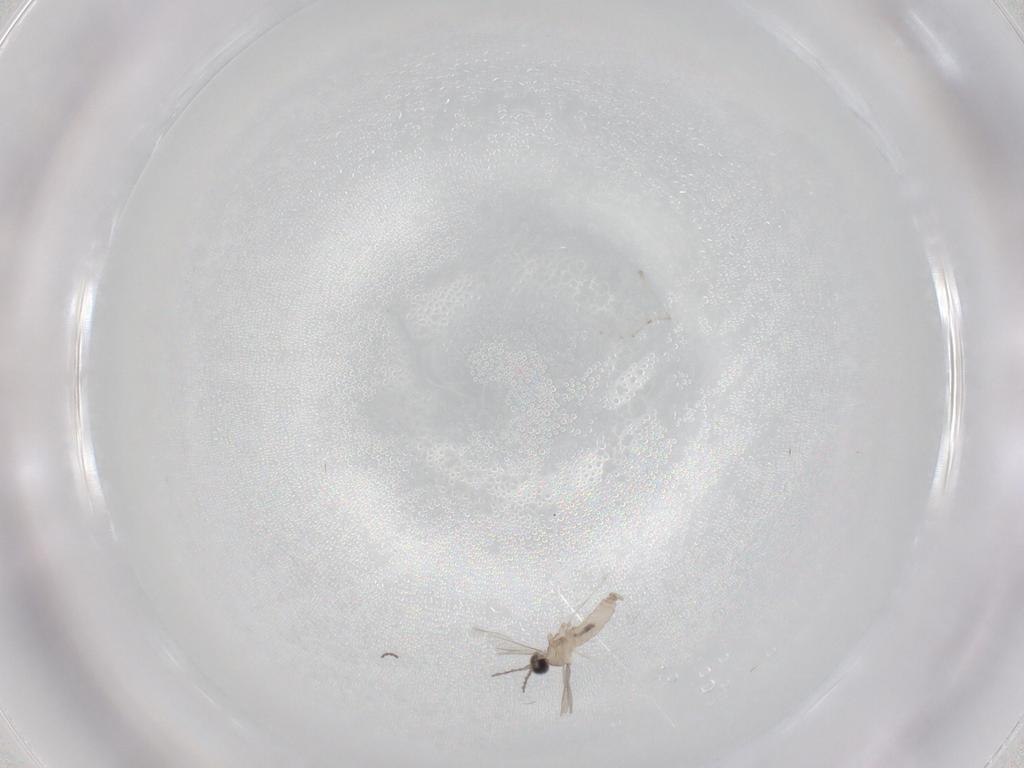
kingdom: Animalia
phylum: Arthropoda
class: Insecta
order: Diptera
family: Cecidomyiidae
